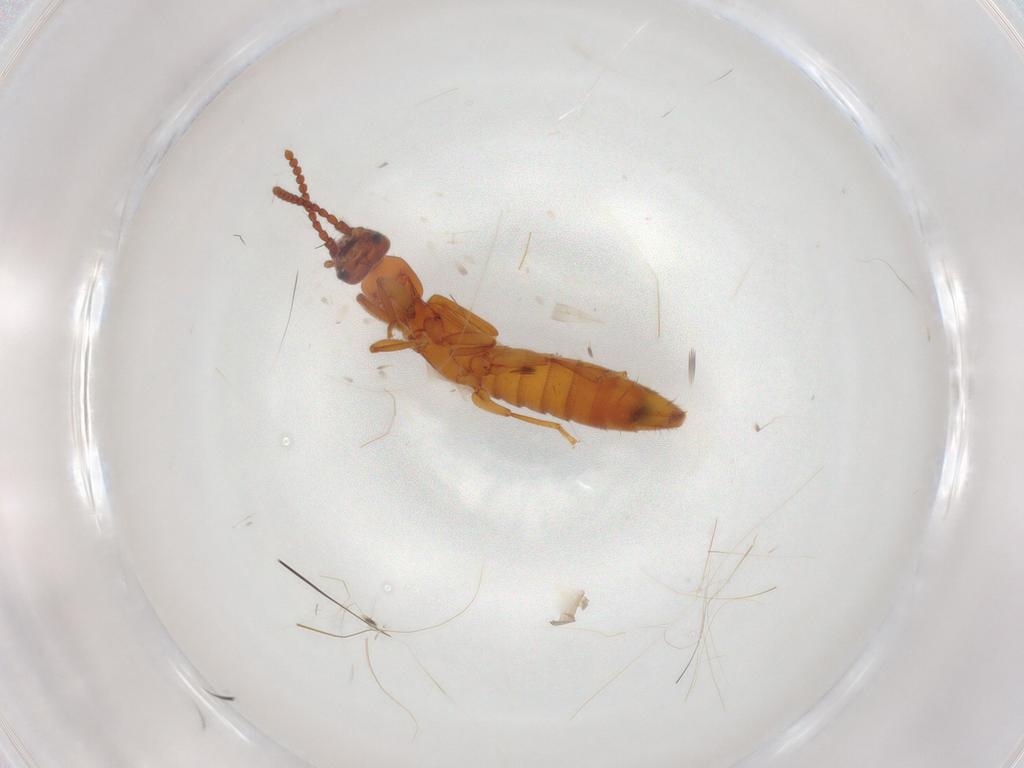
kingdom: Animalia
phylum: Arthropoda
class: Insecta
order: Coleoptera
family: Staphylinidae
